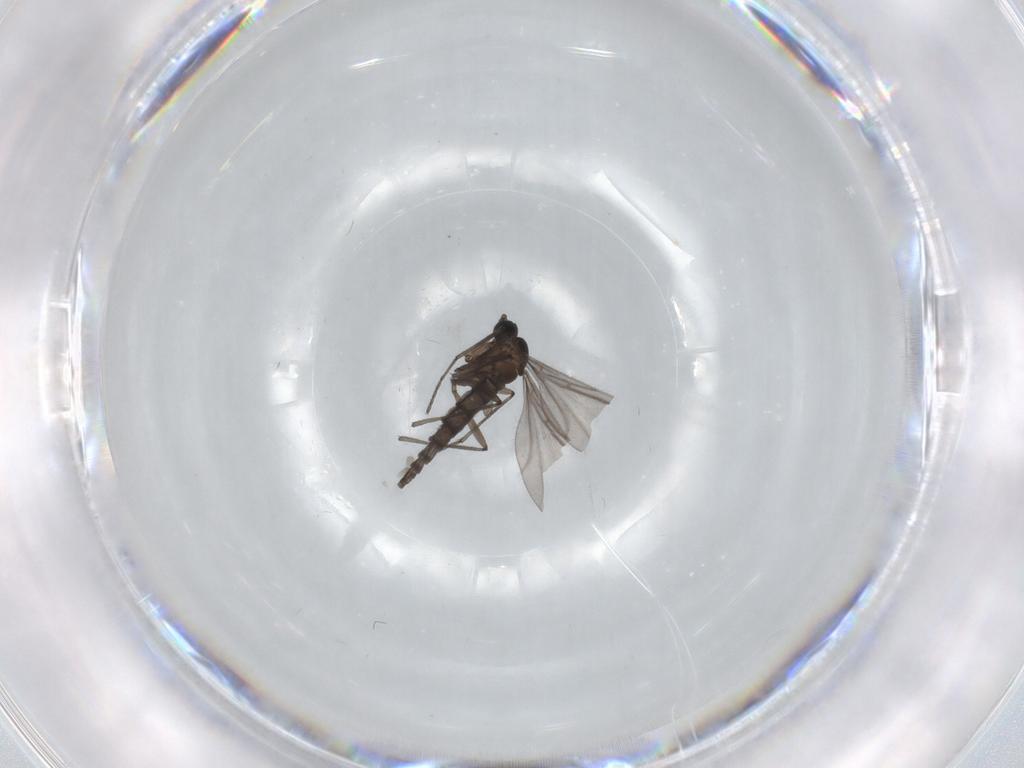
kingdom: Animalia
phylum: Arthropoda
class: Insecta
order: Diptera
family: Sciaridae
